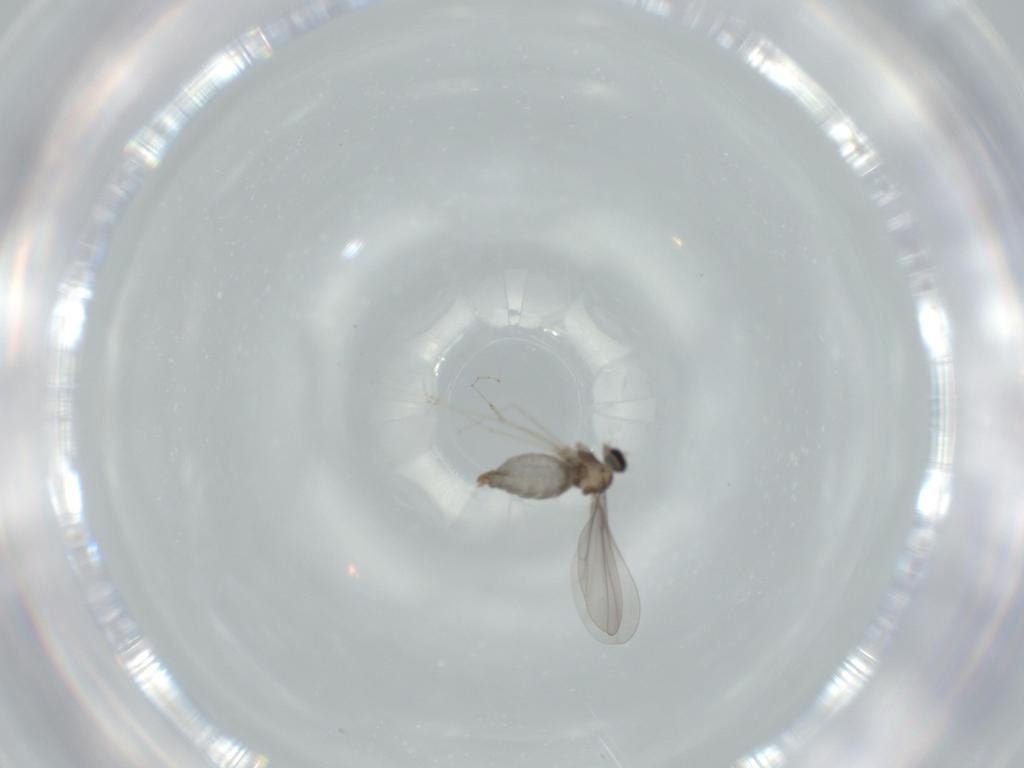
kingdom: Animalia
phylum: Arthropoda
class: Insecta
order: Diptera
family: Cecidomyiidae
